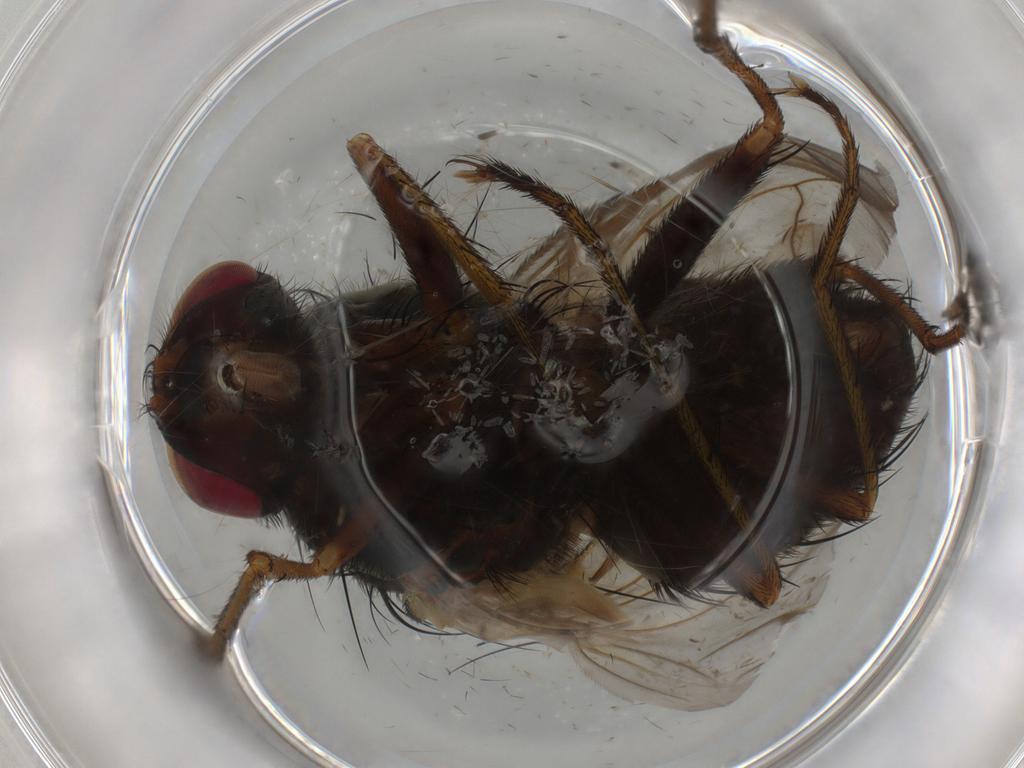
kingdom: Animalia
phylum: Arthropoda
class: Insecta
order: Diptera
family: Tachinidae
